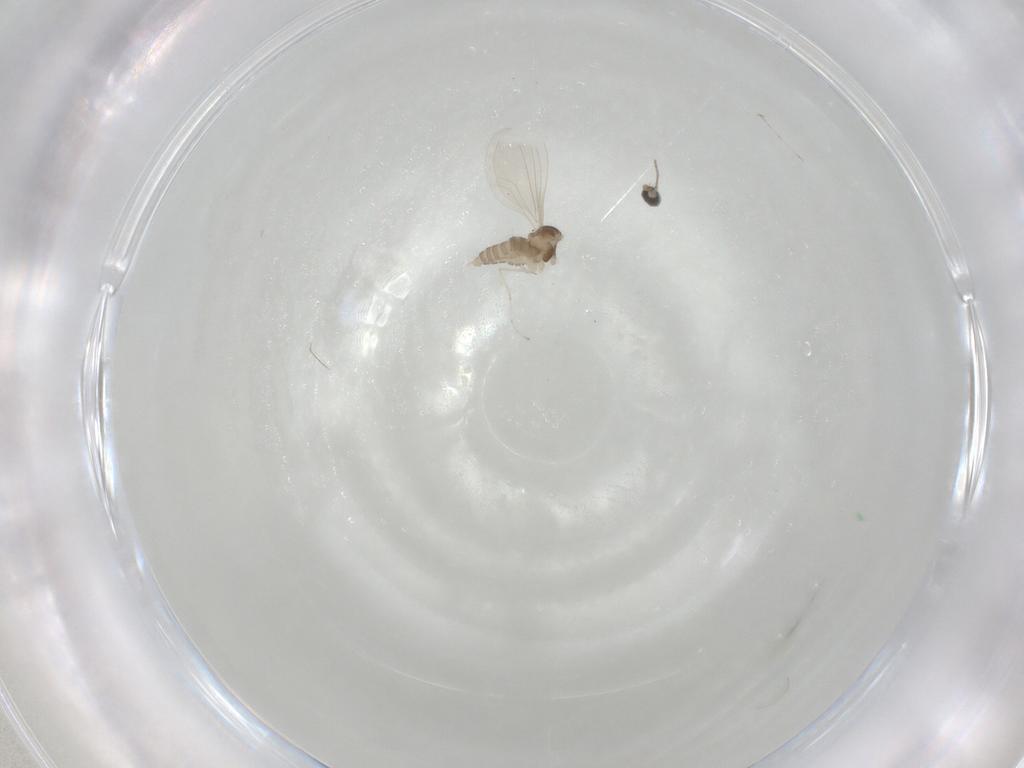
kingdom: Animalia
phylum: Arthropoda
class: Insecta
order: Diptera
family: Cecidomyiidae
